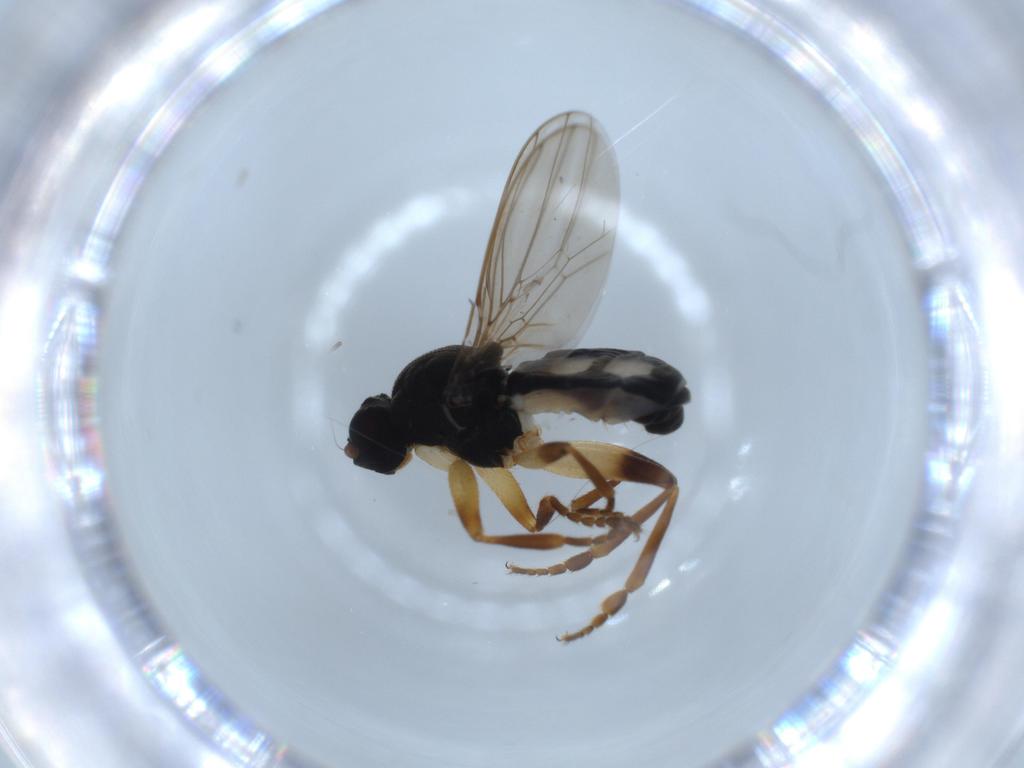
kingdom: Animalia
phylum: Arthropoda
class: Insecta
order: Diptera
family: Sphaeroceridae
